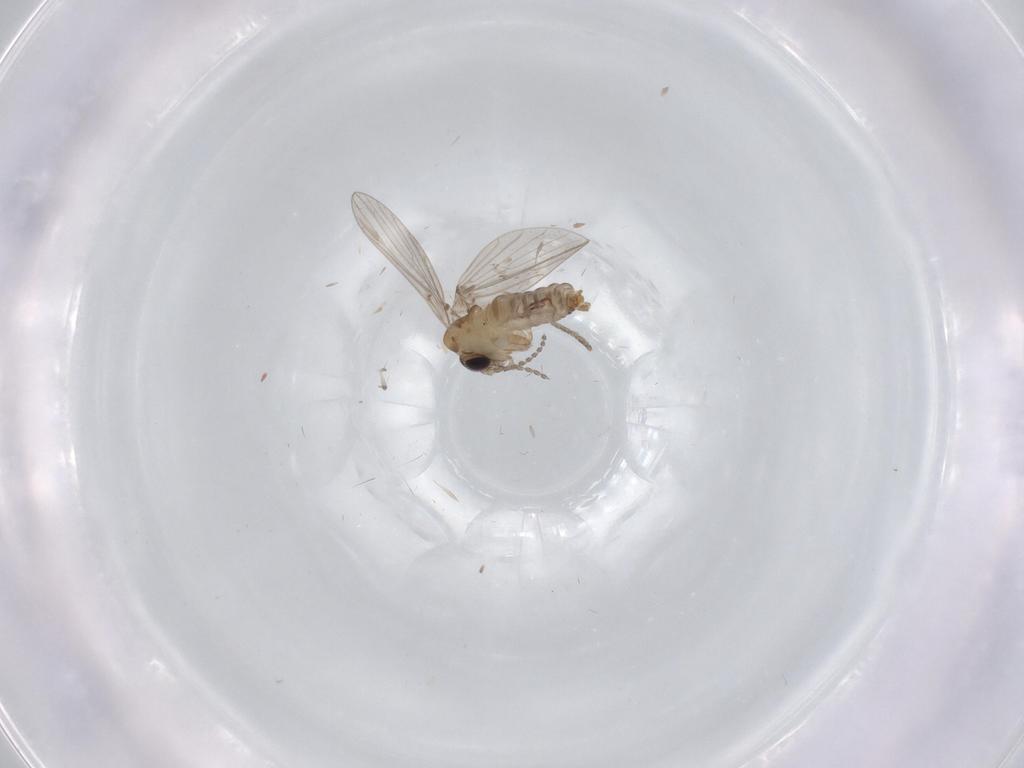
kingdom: Animalia
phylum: Arthropoda
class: Insecta
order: Diptera
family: Psychodidae
